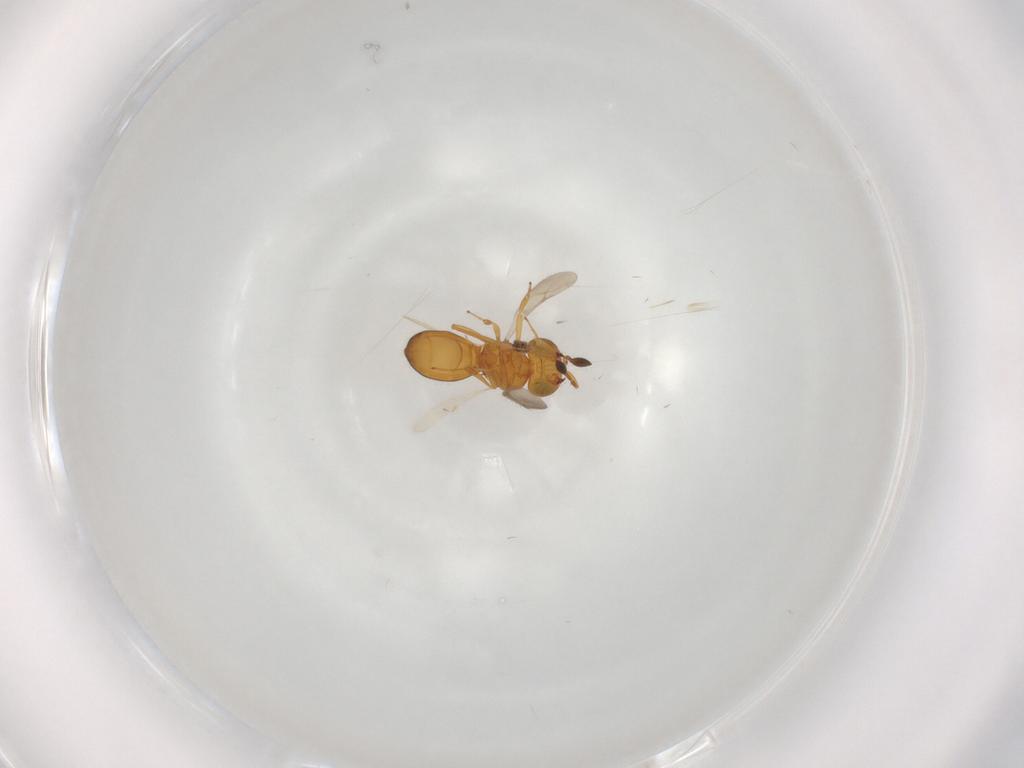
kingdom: Animalia
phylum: Arthropoda
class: Insecta
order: Hymenoptera
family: Scelionidae
